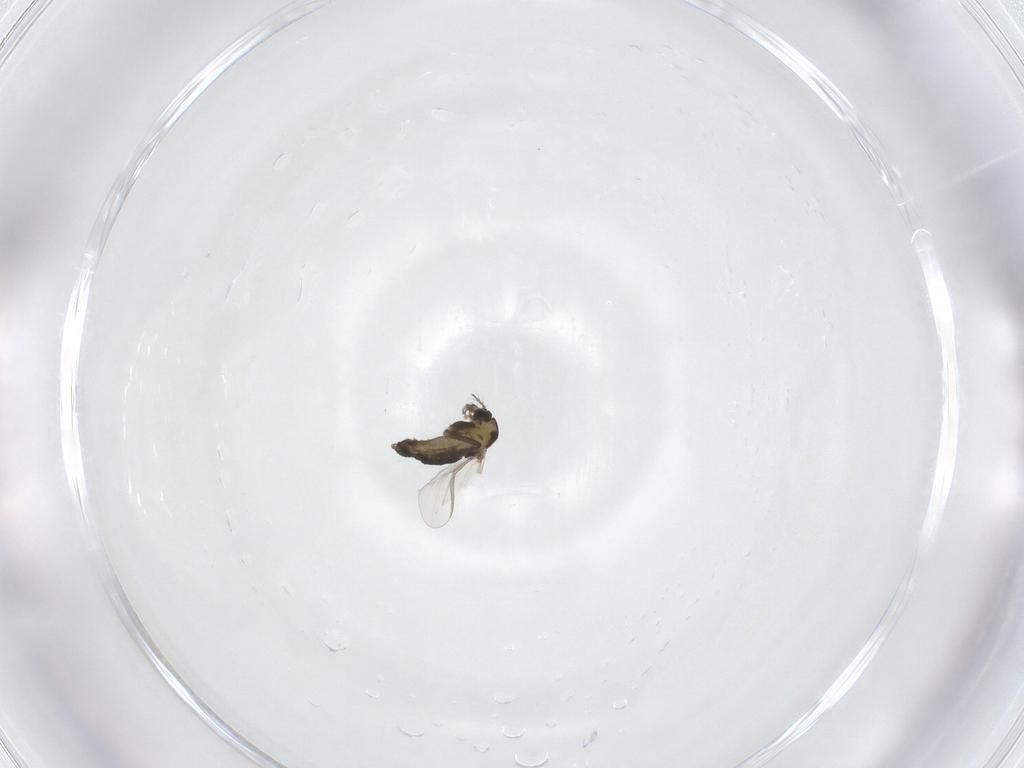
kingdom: Animalia
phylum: Arthropoda
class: Insecta
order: Diptera
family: Chironomidae
